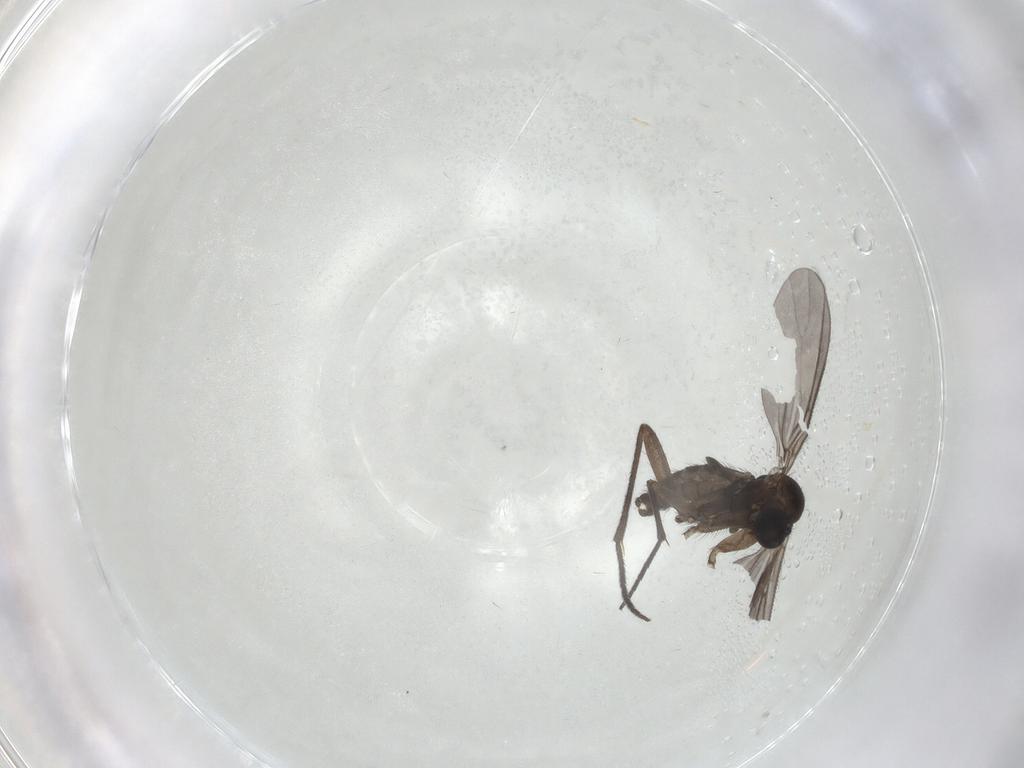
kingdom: Animalia
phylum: Arthropoda
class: Insecta
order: Diptera
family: Sciaridae
